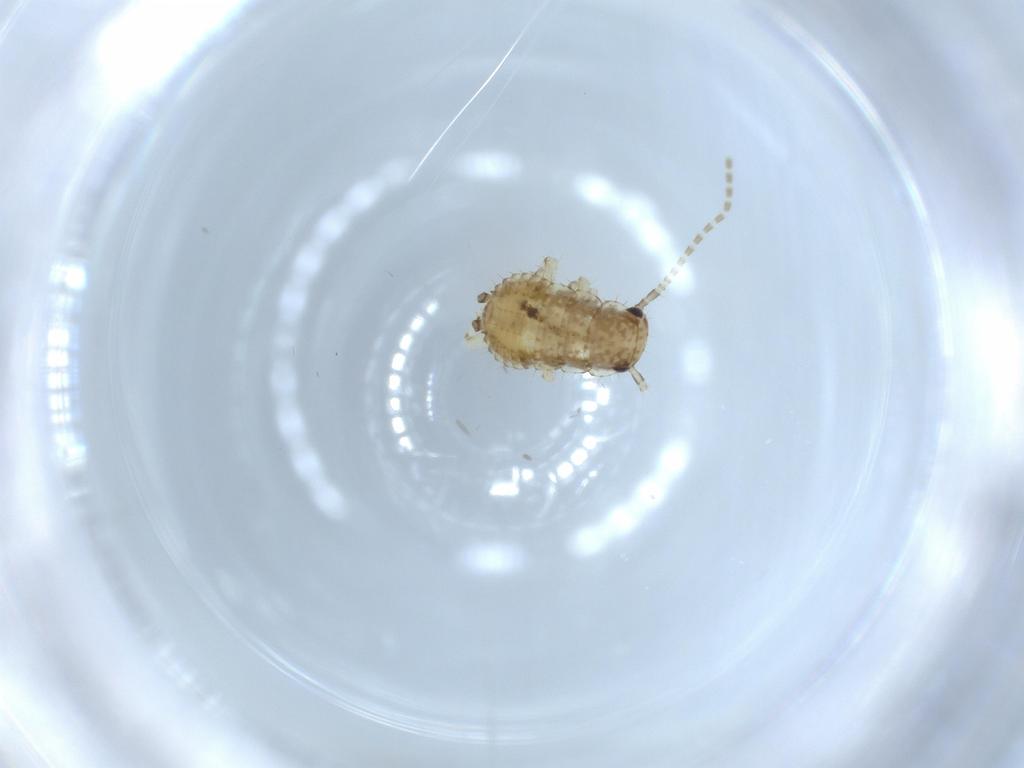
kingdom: Animalia
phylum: Arthropoda
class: Insecta
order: Blattodea
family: Ectobiidae
